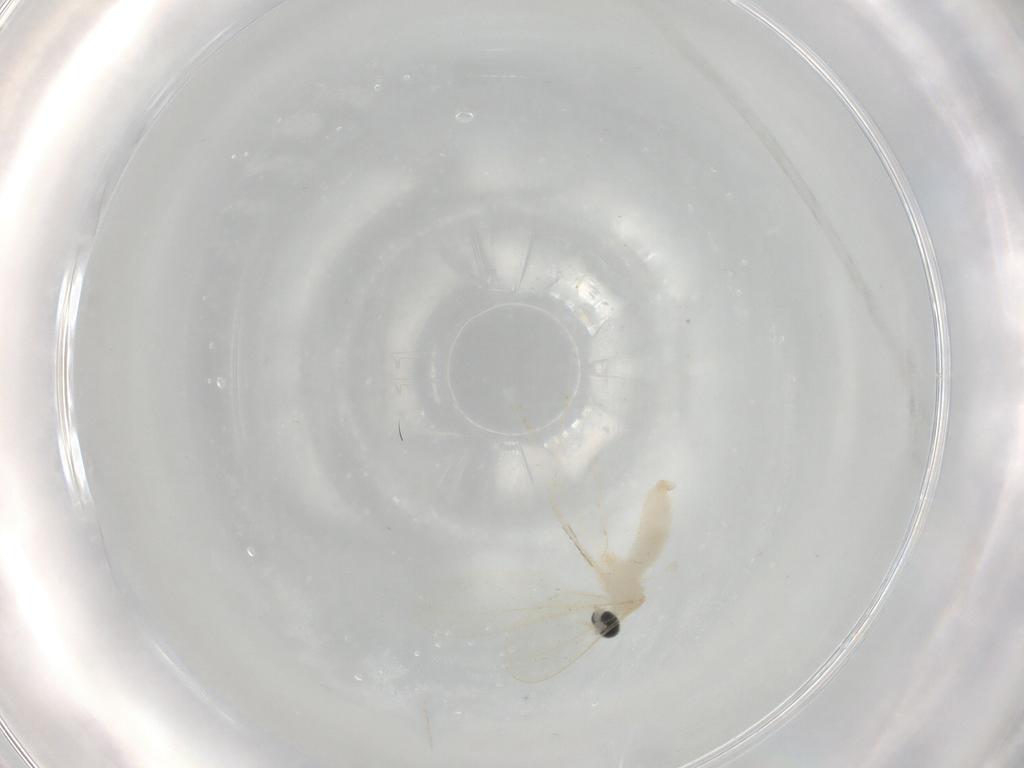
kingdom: Animalia
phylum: Arthropoda
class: Insecta
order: Diptera
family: Cecidomyiidae
